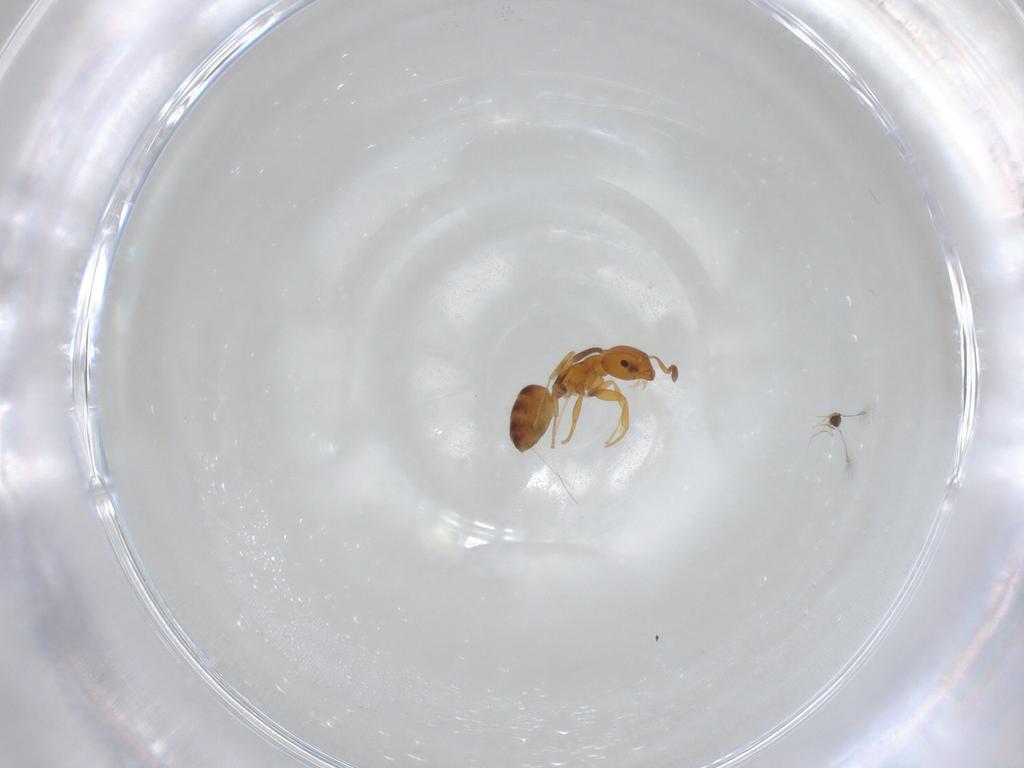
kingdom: Animalia
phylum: Arthropoda
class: Insecta
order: Hymenoptera
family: Formicidae
